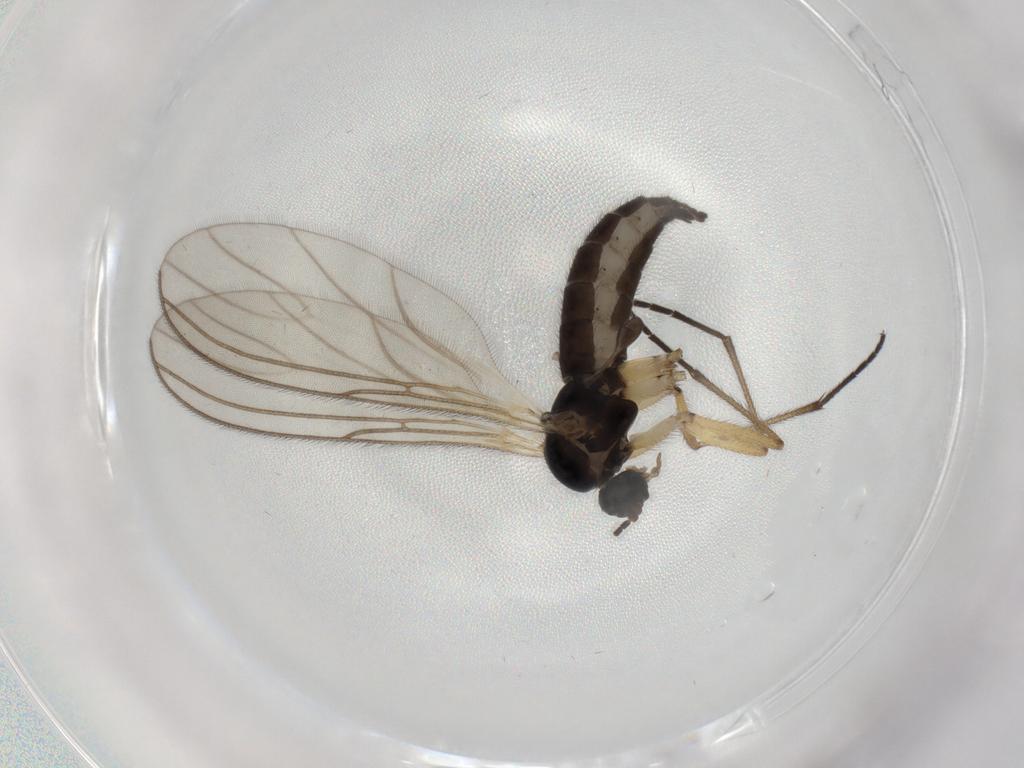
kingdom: Animalia
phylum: Arthropoda
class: Insecta
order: Diptera
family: Sciaridae
